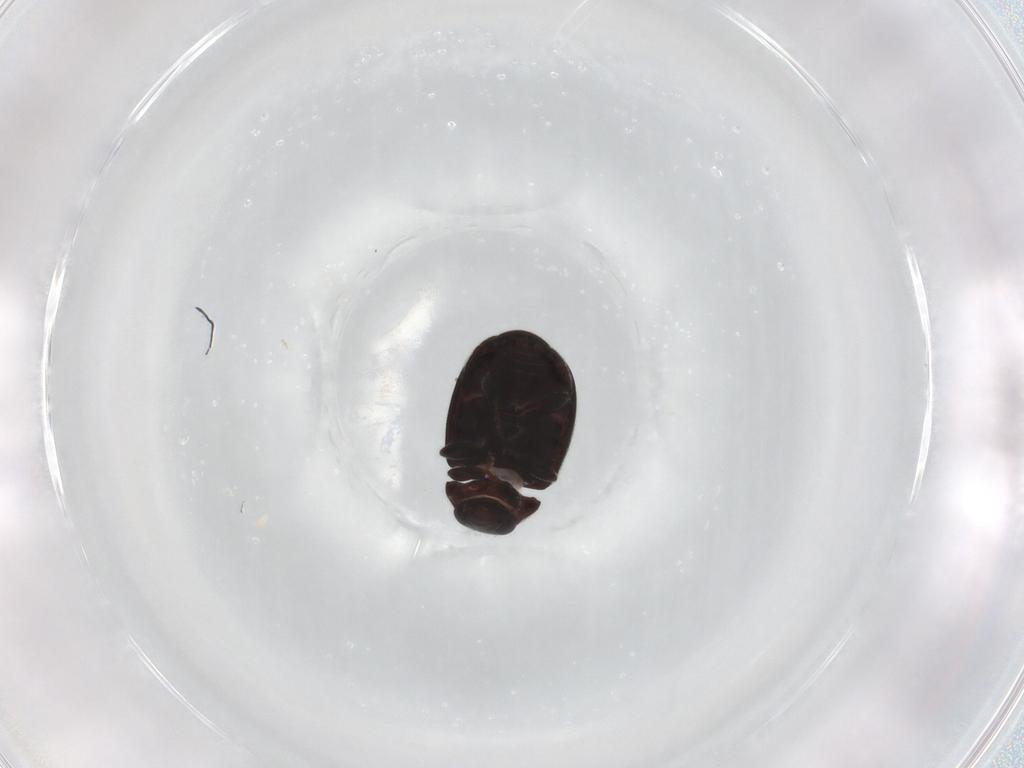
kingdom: Animalia
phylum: Arthropoda
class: Insecta
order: Coleoptera
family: Coccinellidae
